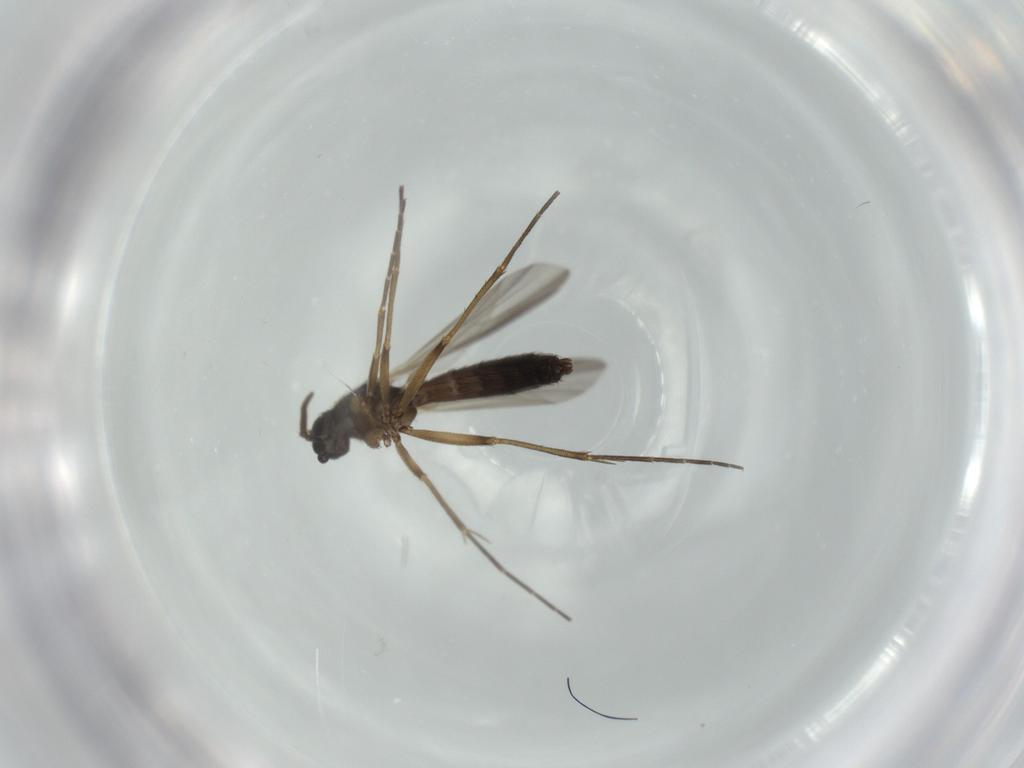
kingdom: Animalia
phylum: Arthropoda
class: Insecta
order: Diptera
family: Mycetophilidae
